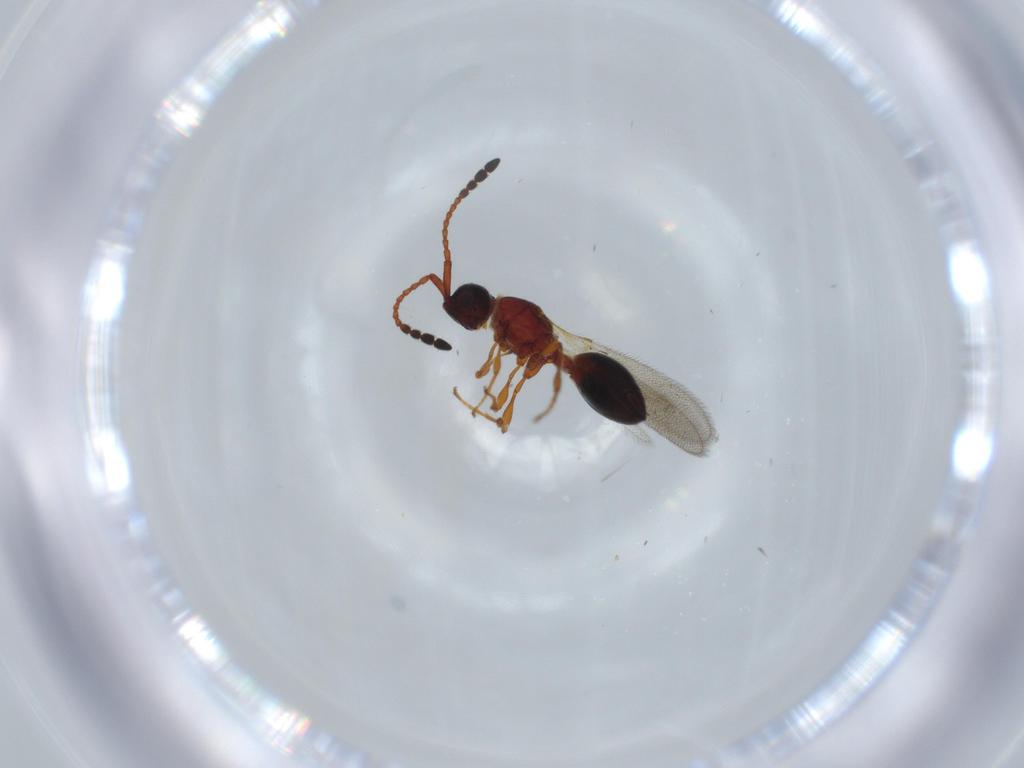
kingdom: Animalia
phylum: Arthropoda
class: Insecta
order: Hymenoptera
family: Diapriidae
